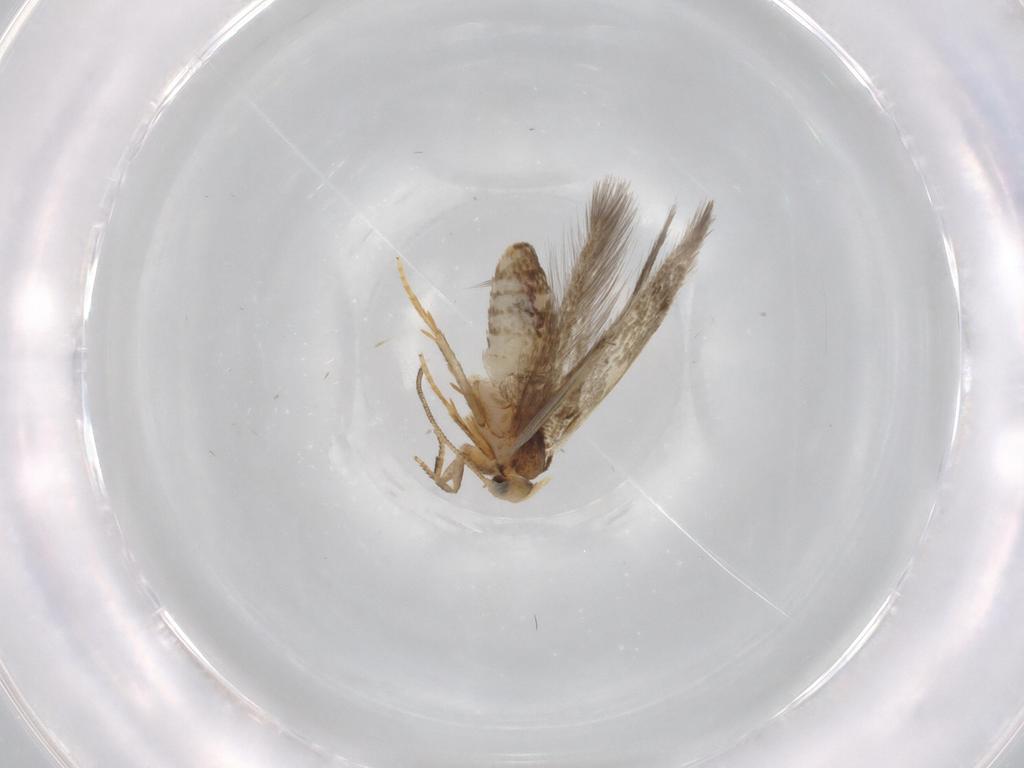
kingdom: Animalia
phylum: Arthropoda
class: Insecta
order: Lepidoptera
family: Nepticulidae
